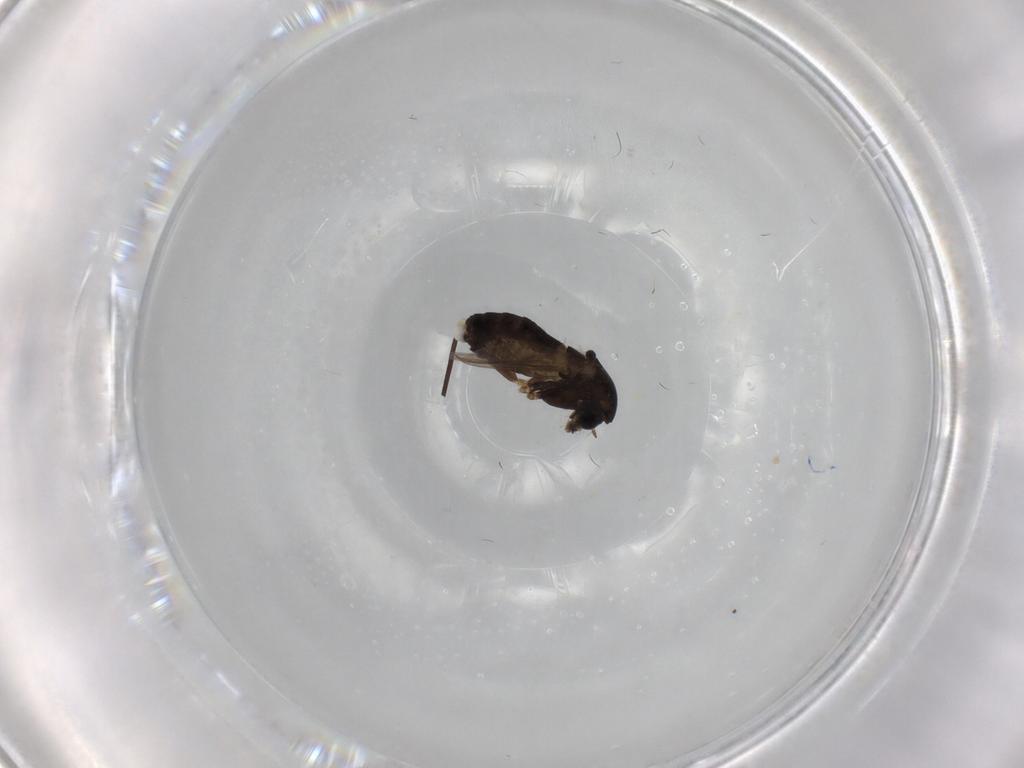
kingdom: Animalia
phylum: Arthropoda
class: Insecta
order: Diptera
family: Chironomidae
